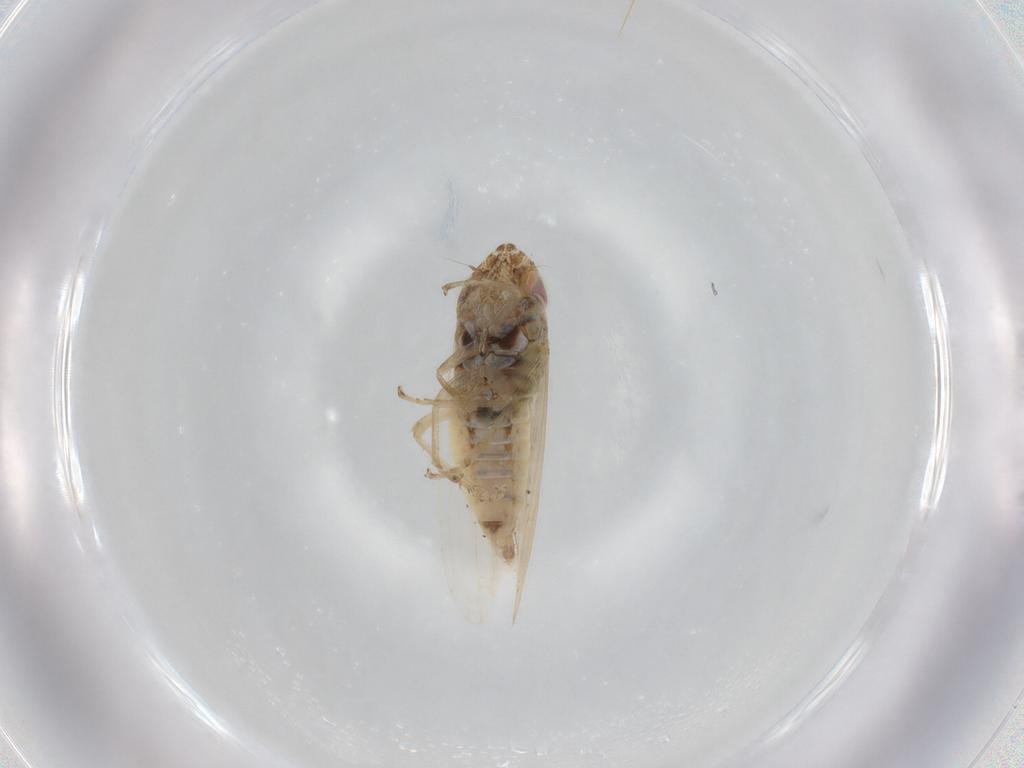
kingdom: Animalia
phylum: Arthropoda
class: Insecta
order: Hemiptera
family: Cicadellidae
